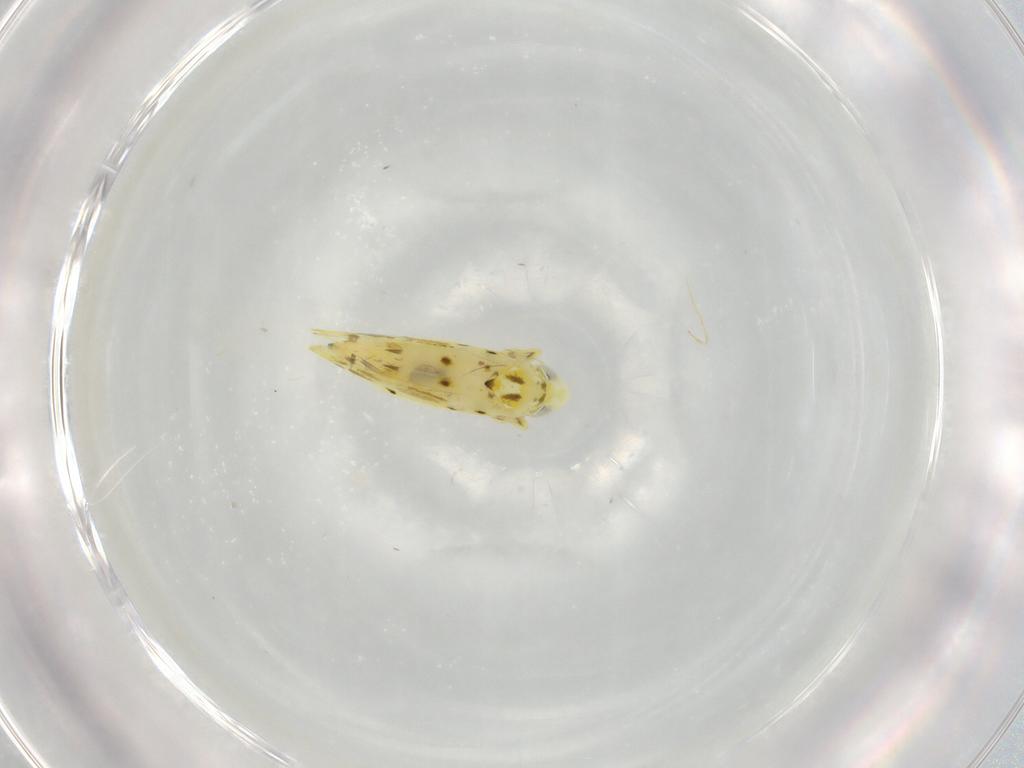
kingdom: Animalia
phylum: Arthropoda
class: Insecta
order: Hemiptera
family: Cicadellidae
